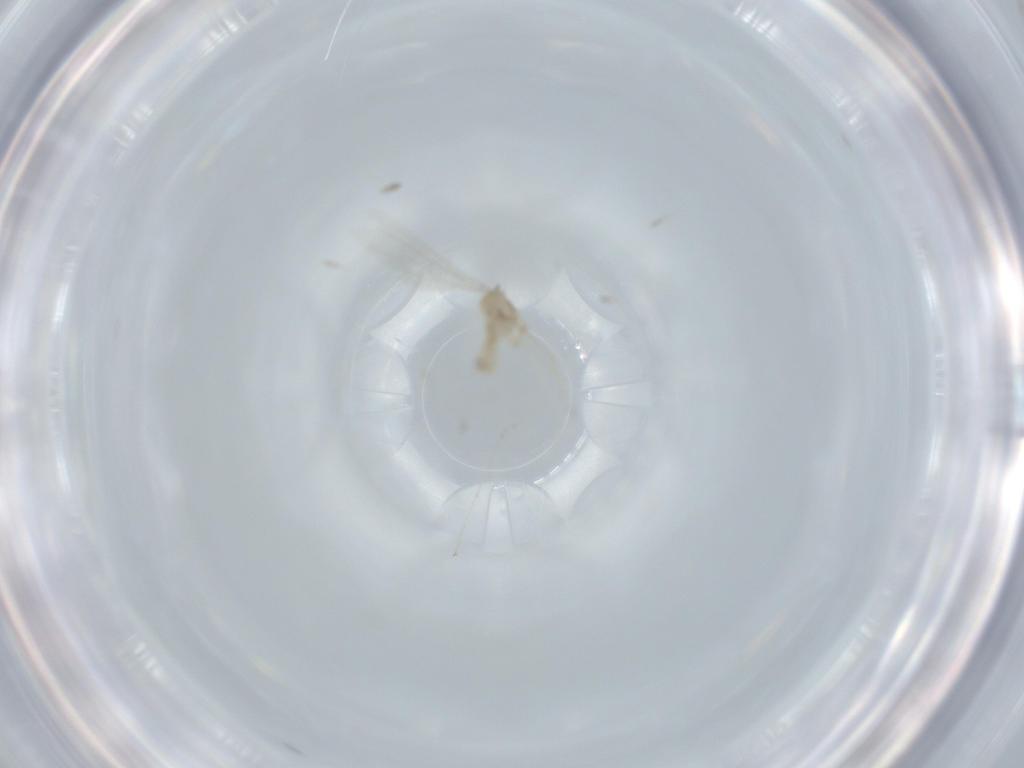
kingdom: Animalia
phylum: Arthropoda
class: Insecta
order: Diptera
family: Cecidomyiidae
